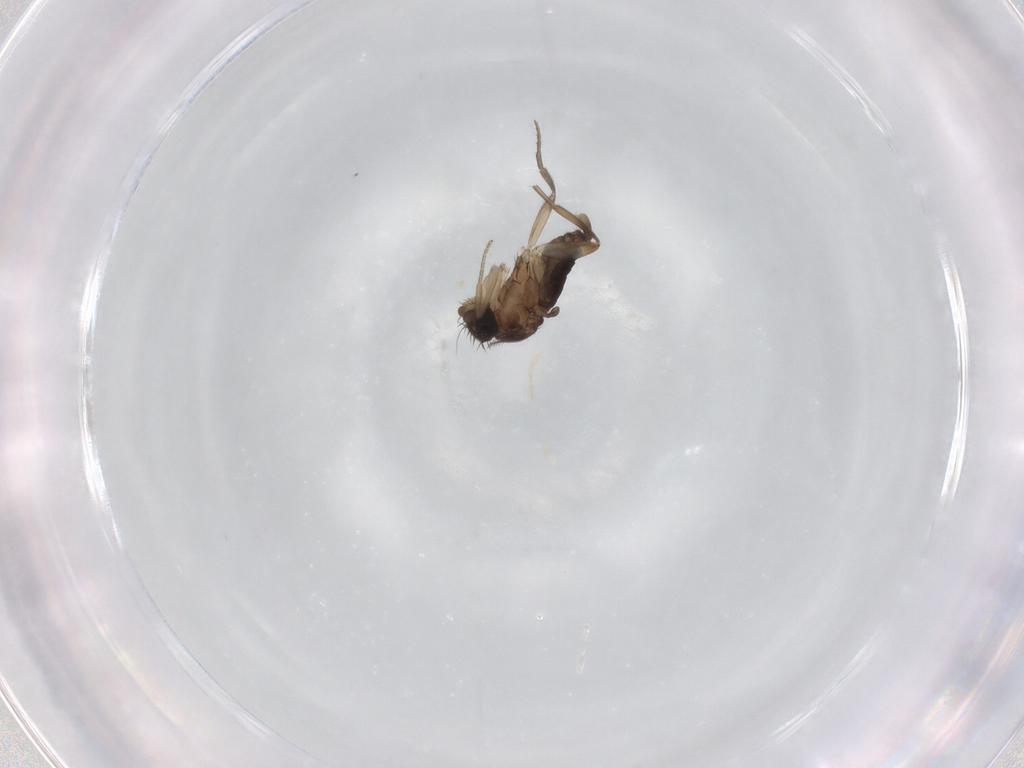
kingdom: Animalia
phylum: Arthropoda
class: Insecta
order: Diptera
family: Phoridae
